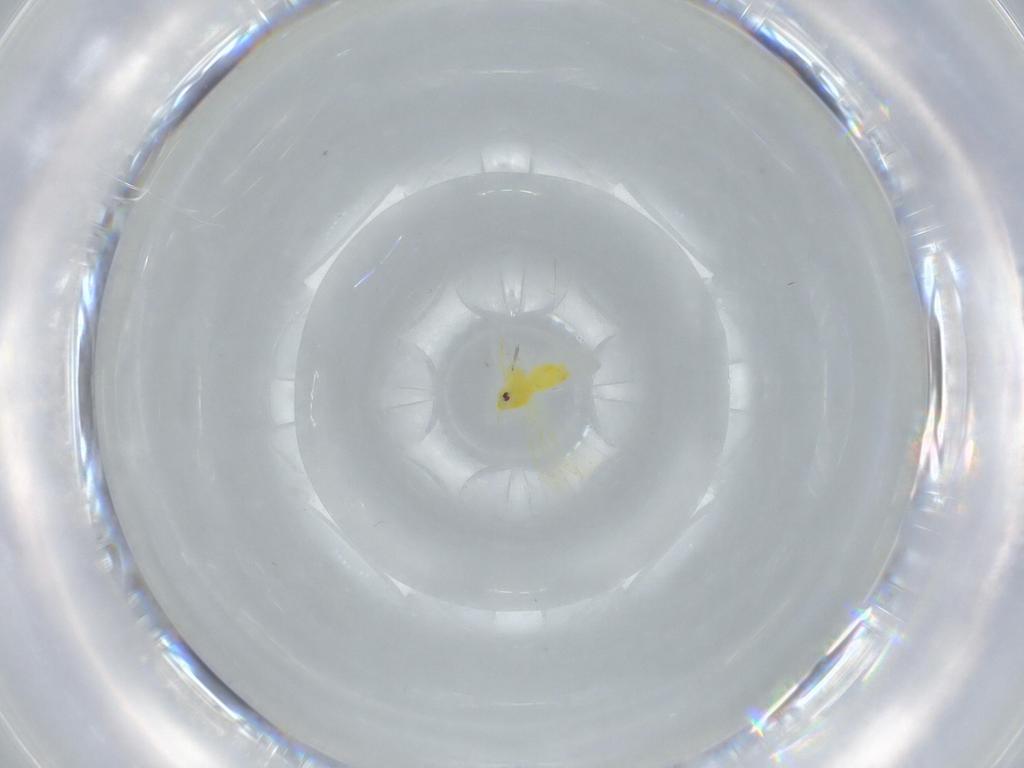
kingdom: Animalia
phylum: Arthropoda
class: Insecta
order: Hemiptera
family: Aleyrodidae
